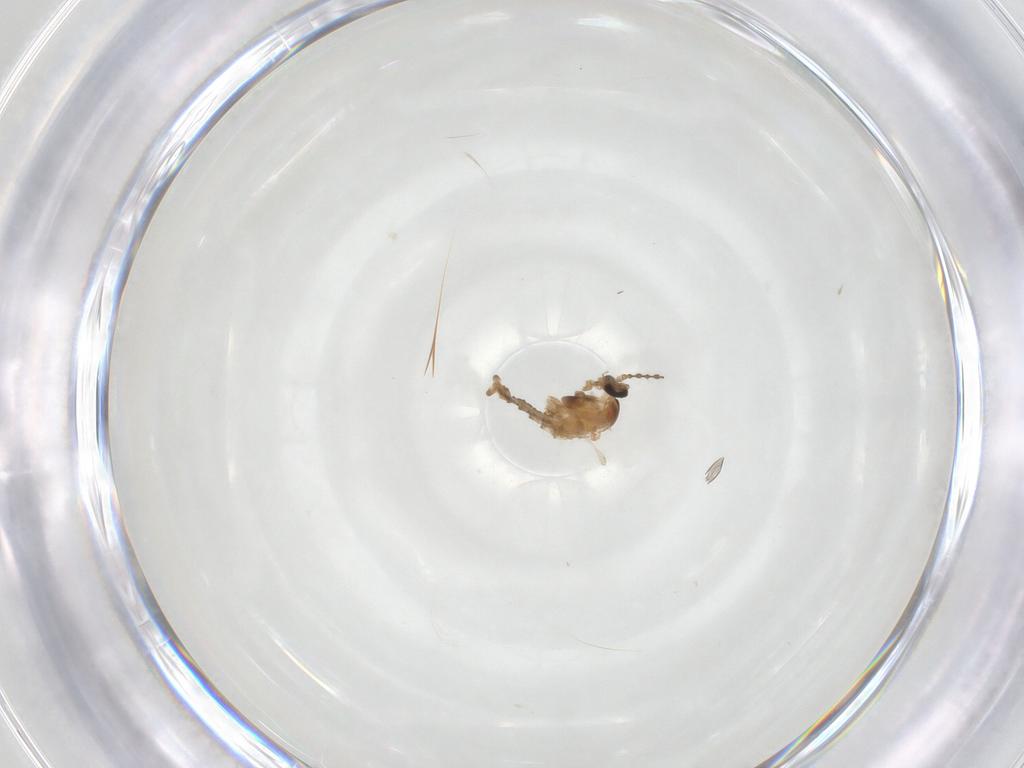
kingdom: Animalia
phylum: Arthropoda
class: Insecta
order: Diptera
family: Cecidomyiidae
